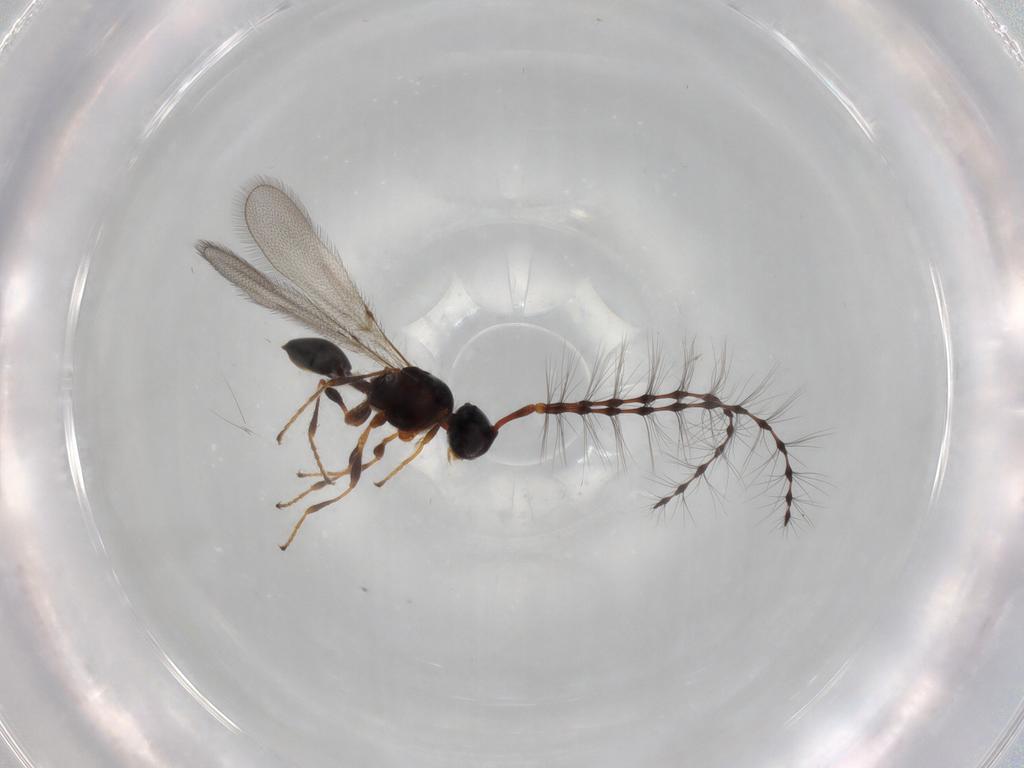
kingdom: Animalia
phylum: Arthropoda
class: Insecta
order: Hymenoptera
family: Diapriidae
